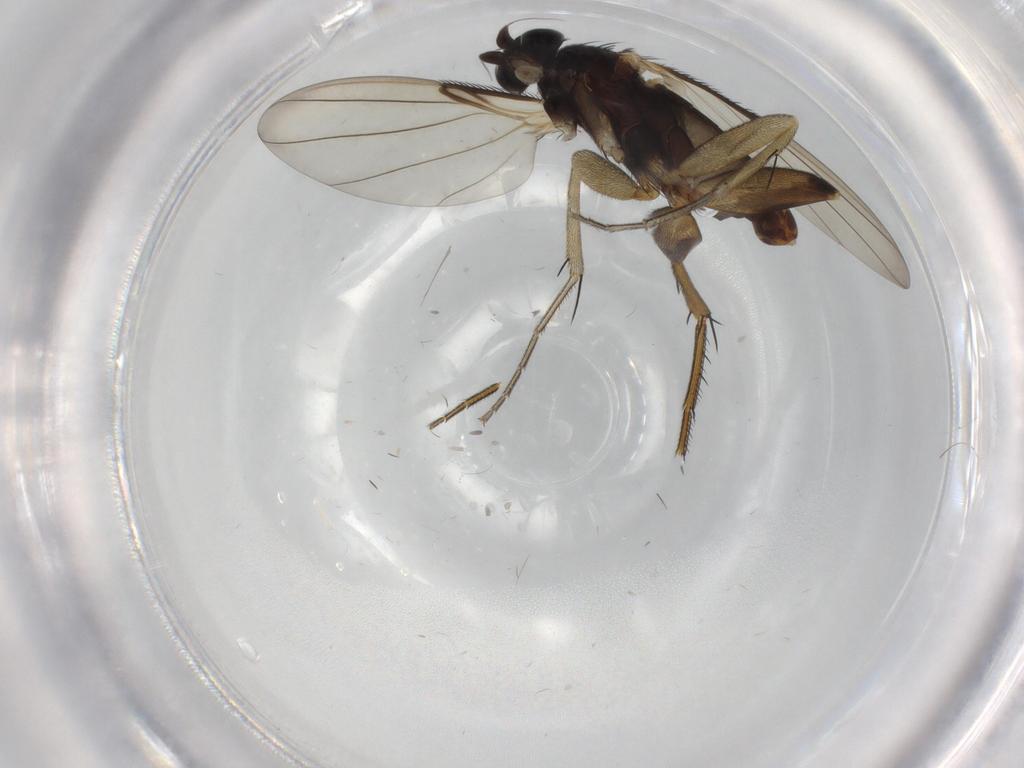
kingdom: Animalia
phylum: Arthropoda
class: Insecta
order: Diptera
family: Phoridae
